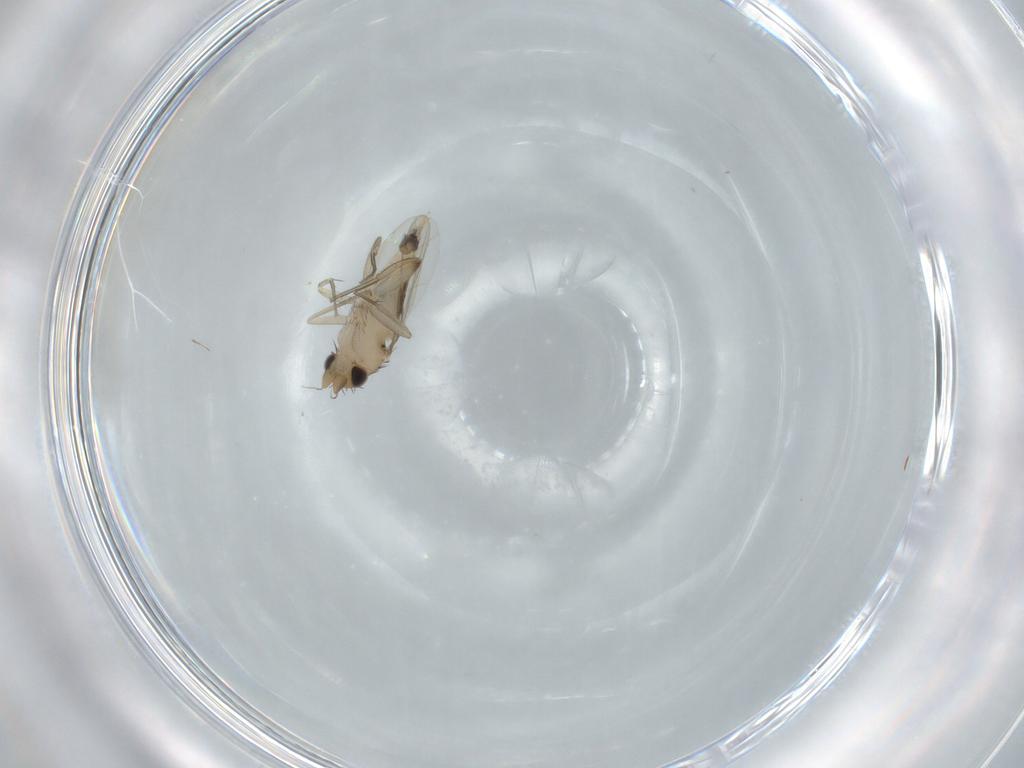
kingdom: Animalia
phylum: Arthropoda
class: Insecta
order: Diptera
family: Phoridae
